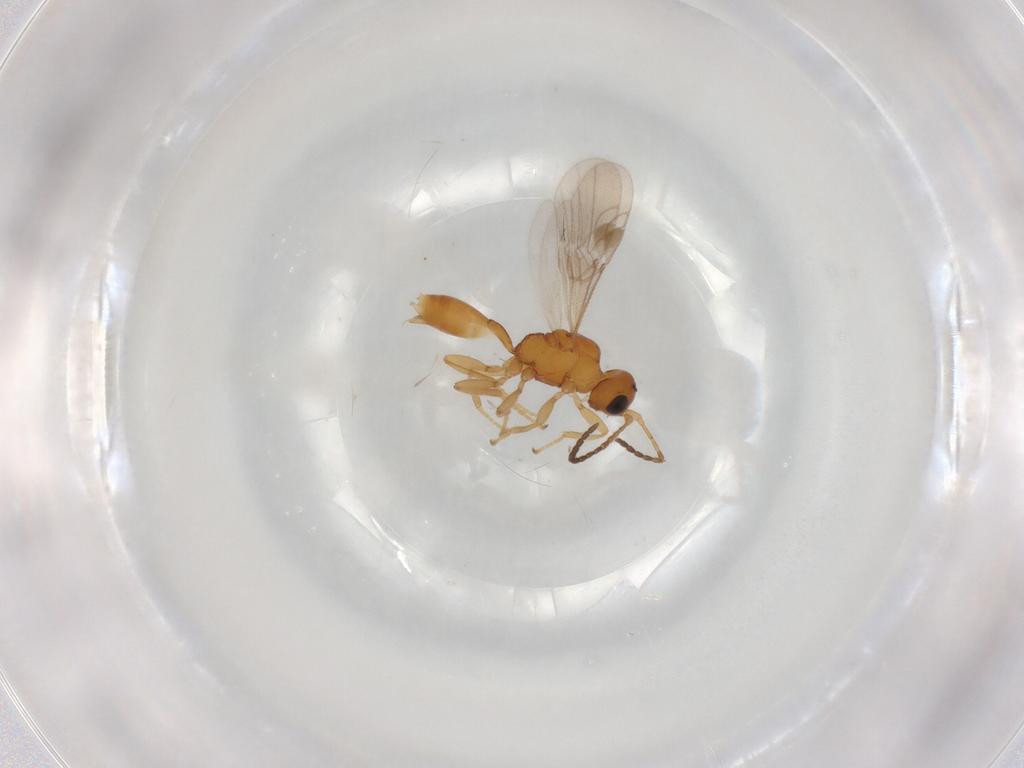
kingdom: Animalia
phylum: Arthropoda
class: Insecta
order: Hymenoptera
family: Braconidae
